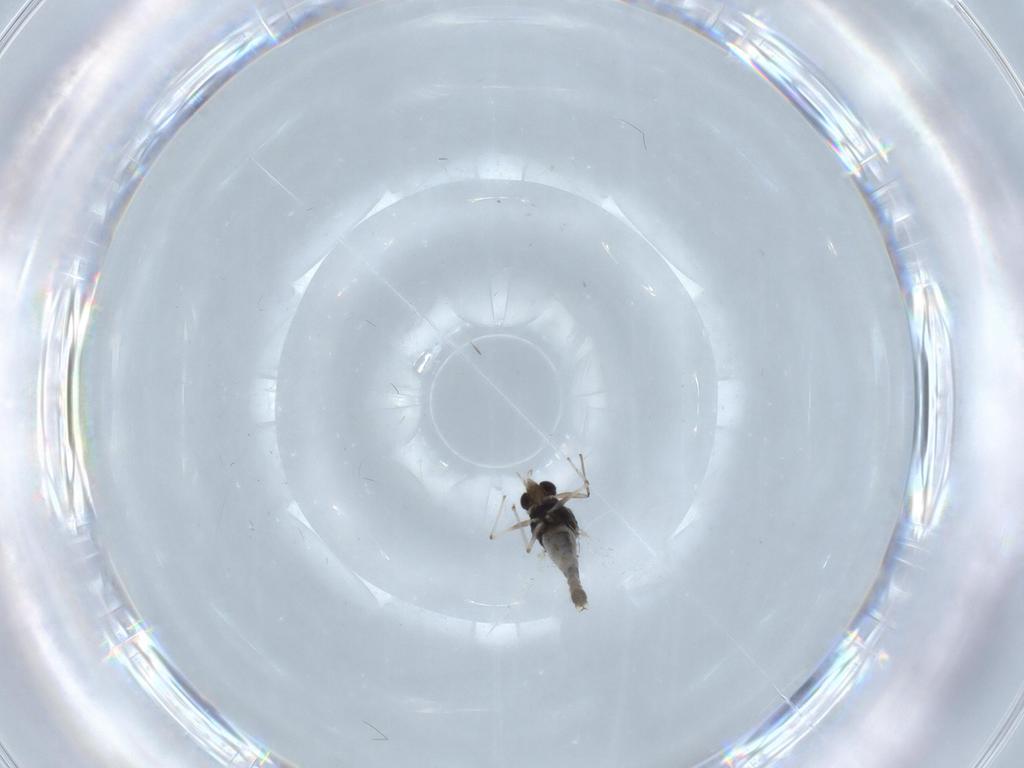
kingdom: Animalia
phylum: Arthropoda
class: Insecta
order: Diptera
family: Chironomidae
